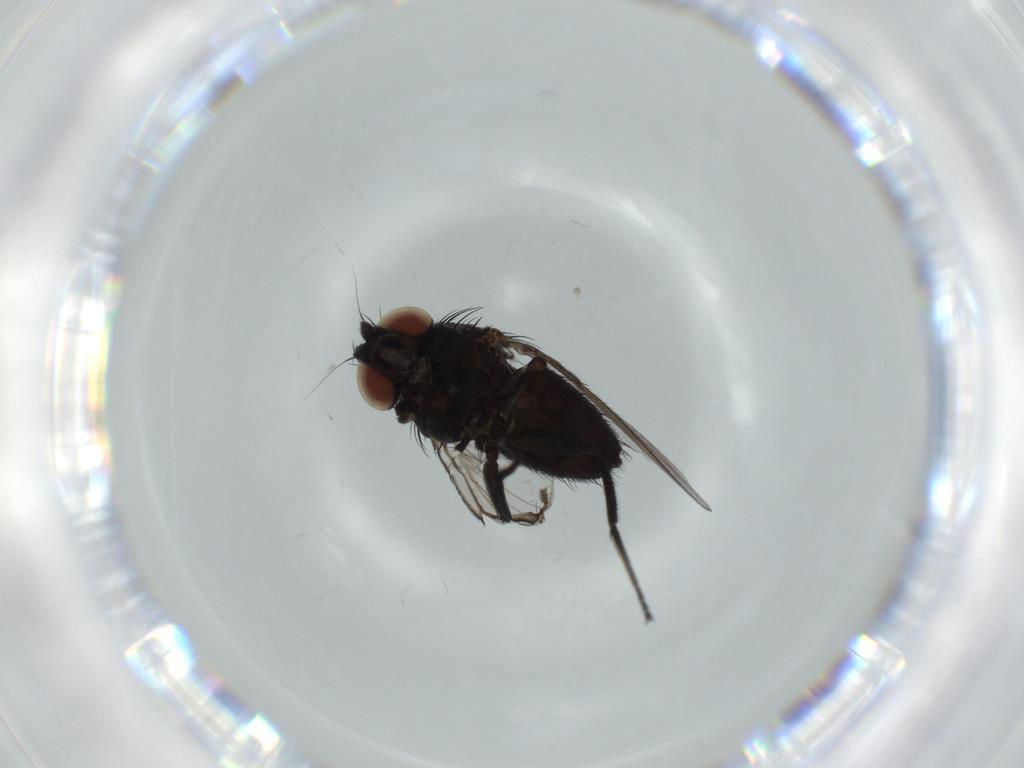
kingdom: Animalia
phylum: Arthropoda
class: Insecta
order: Diptera
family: Milichiidae
